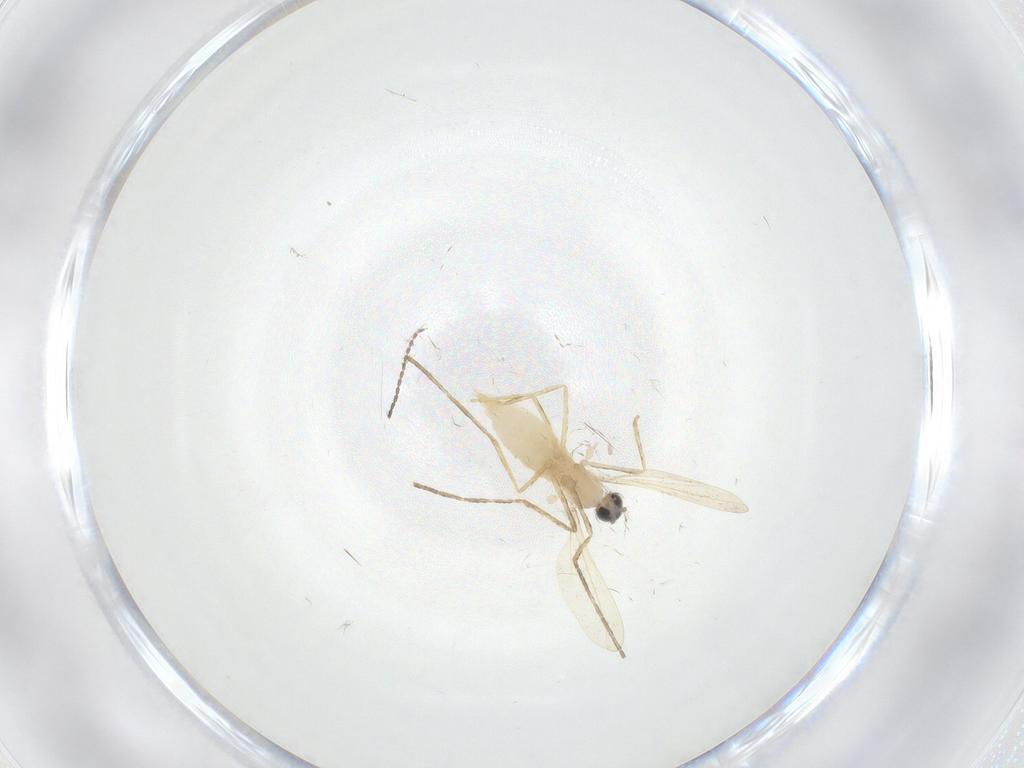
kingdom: Animalia
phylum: Arthropoda
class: Insecta
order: Diptera
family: Cecidomyiidae
